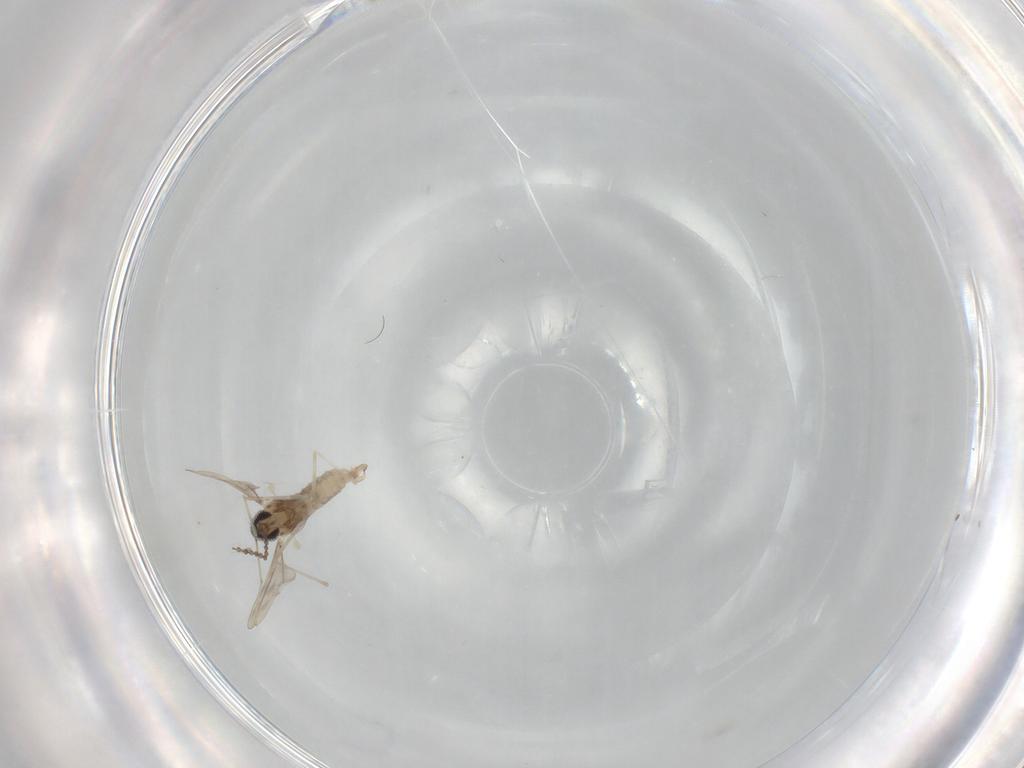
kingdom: Animalia
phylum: Arthropoda
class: Insecta
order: Diptera
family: Cecidomyiidae
